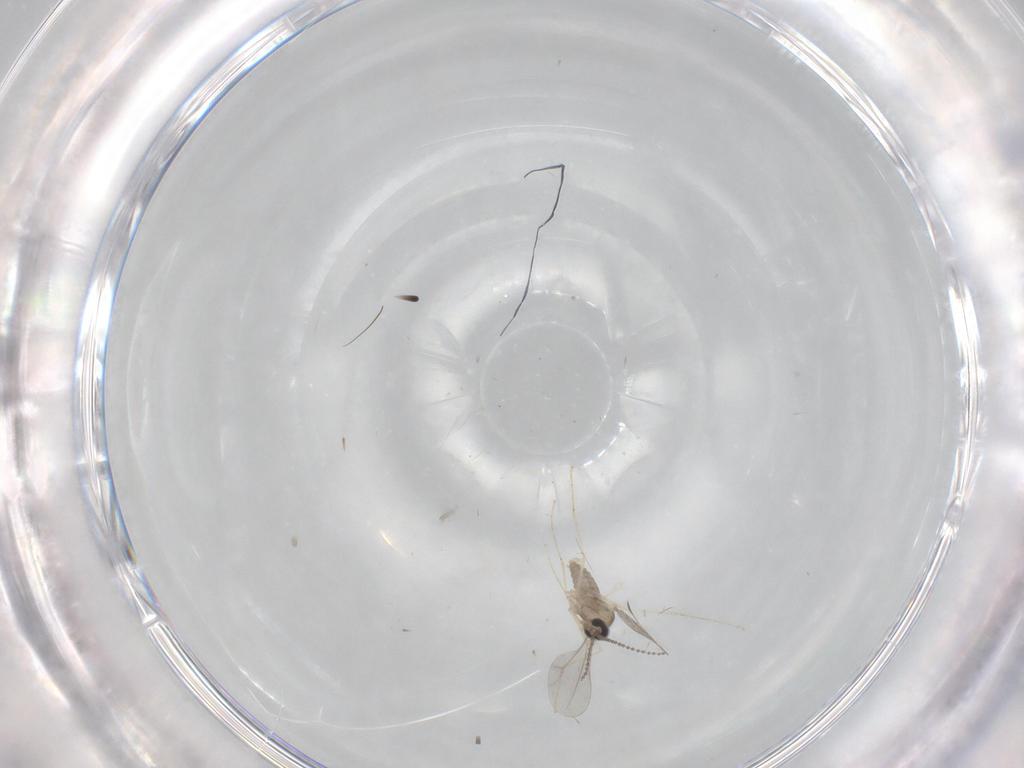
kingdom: Animalia
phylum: Arthropoda
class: Insecta
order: Diptera
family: Cecidomyiidae
